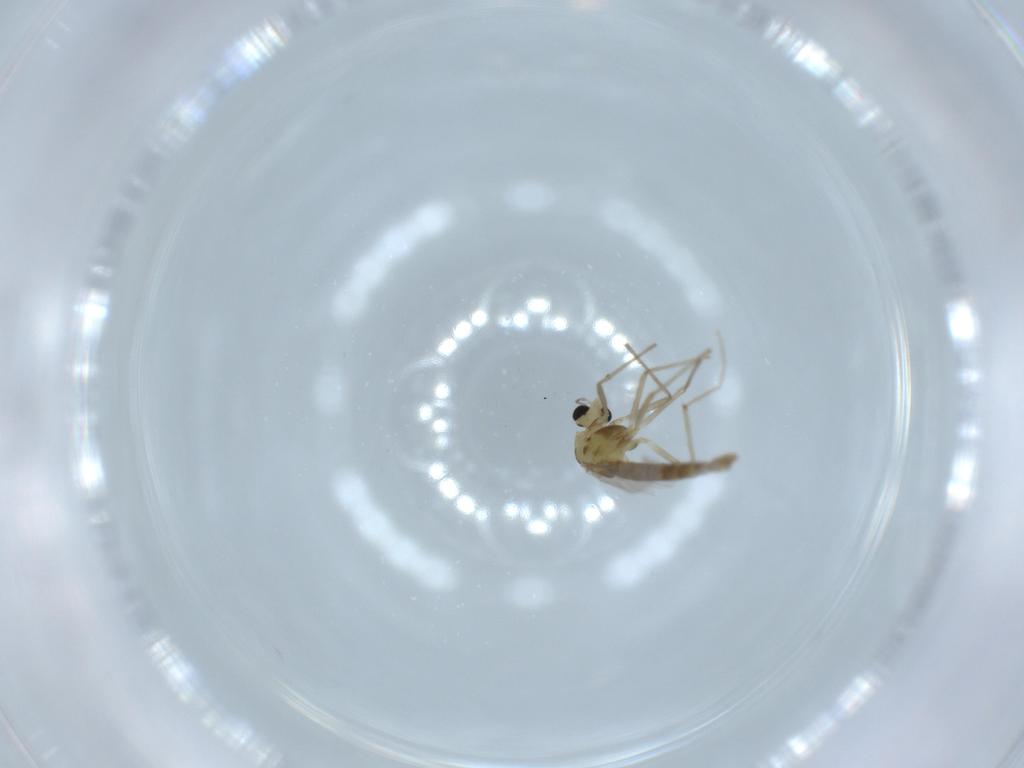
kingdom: Animalia
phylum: Arthropoda
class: Insecta
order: Diptera
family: Chironomidae
